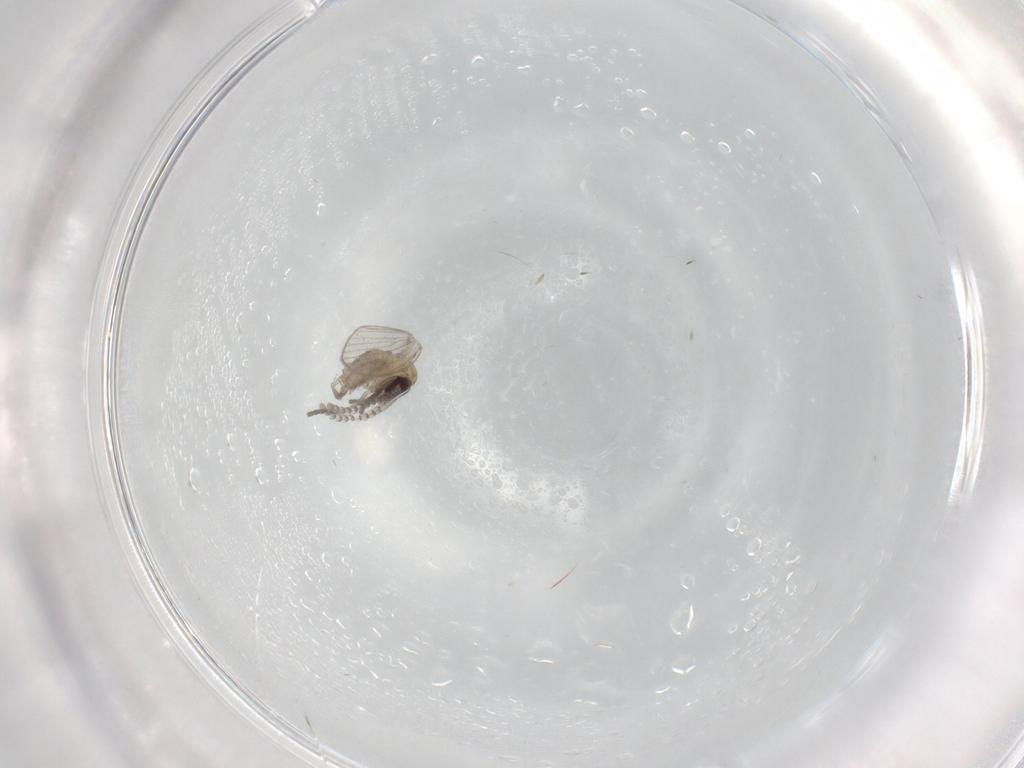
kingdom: Animalia
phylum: Arthropoda
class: Insecta
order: Diptera
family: Psychodidae
